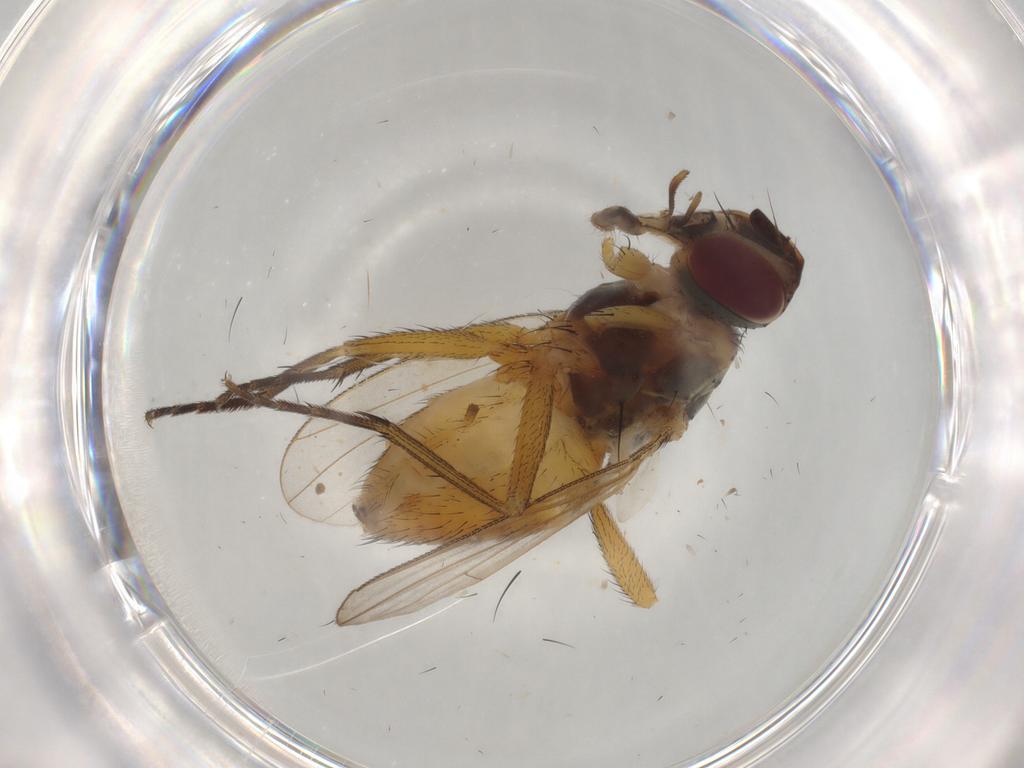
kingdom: Animalia
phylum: Arthropoda
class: Insecta
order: Diptera
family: Muscidae
